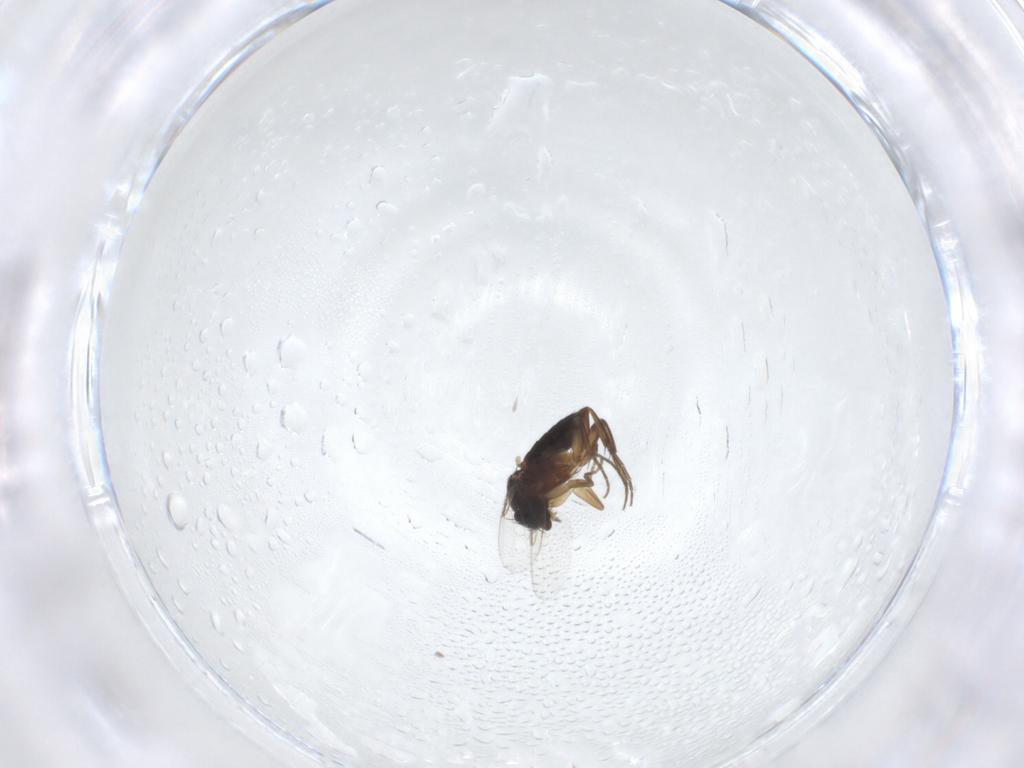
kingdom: Animalia
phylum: Arthropoda
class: Insecta
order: Diptera
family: Phoridae
